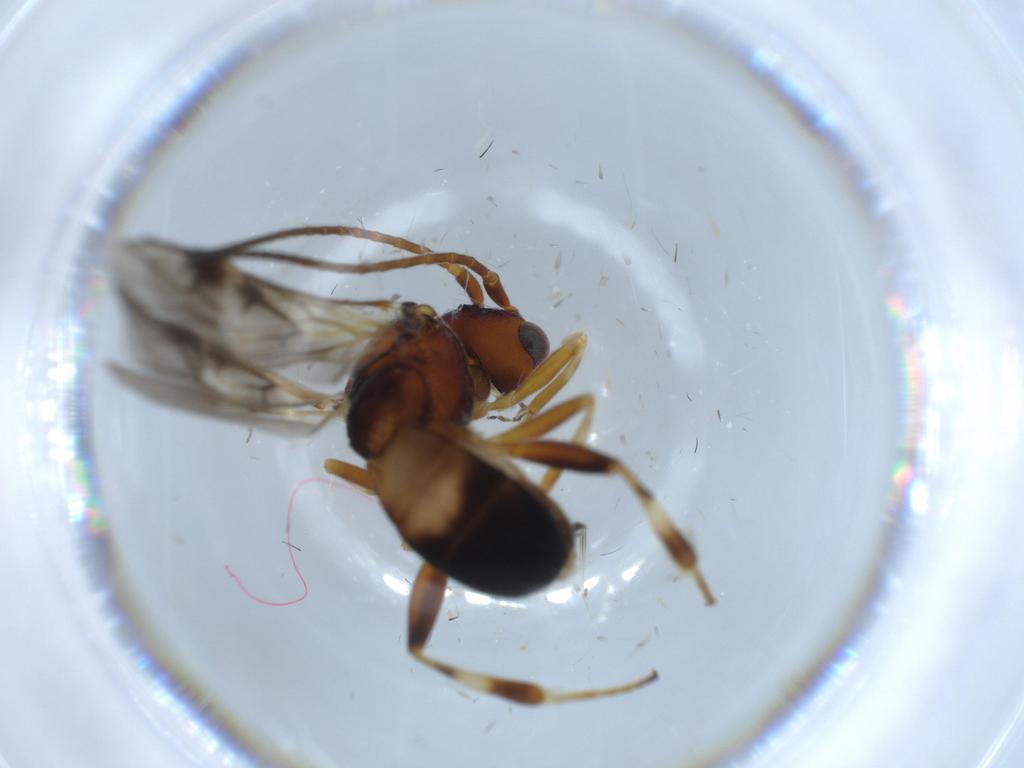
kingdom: Animalia
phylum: Arthropoda
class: Insecta
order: Hymenoptera
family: Braconidae
